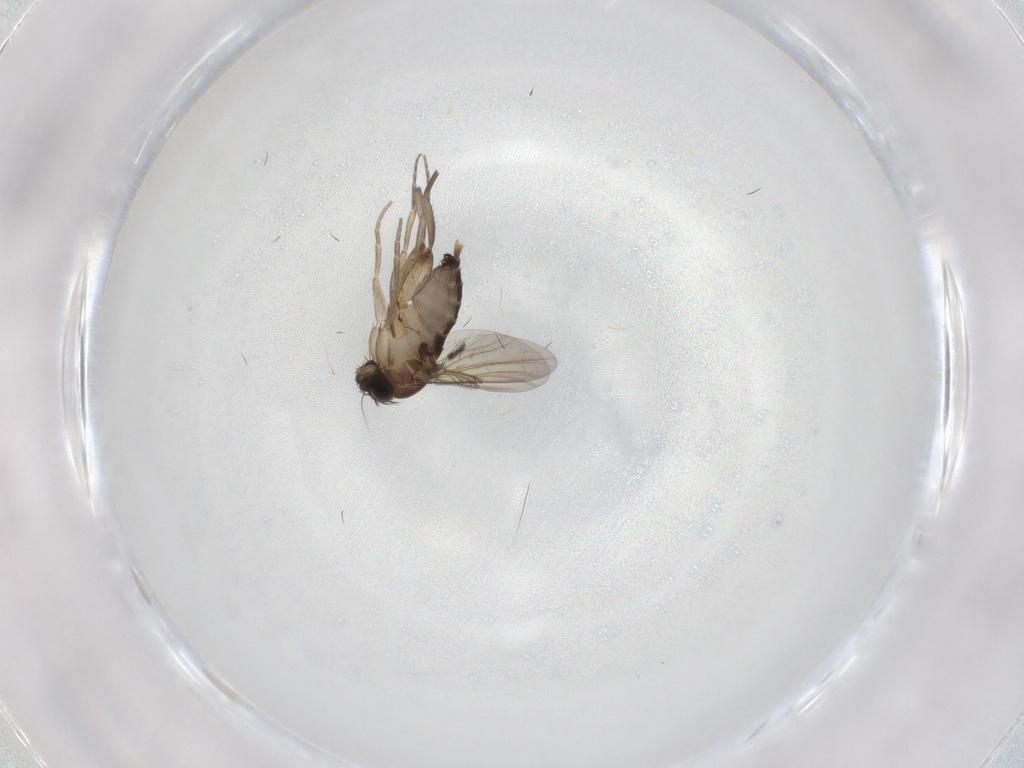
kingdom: Animalia
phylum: Arthropoda
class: Insecta
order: Diptera
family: Phoridae
